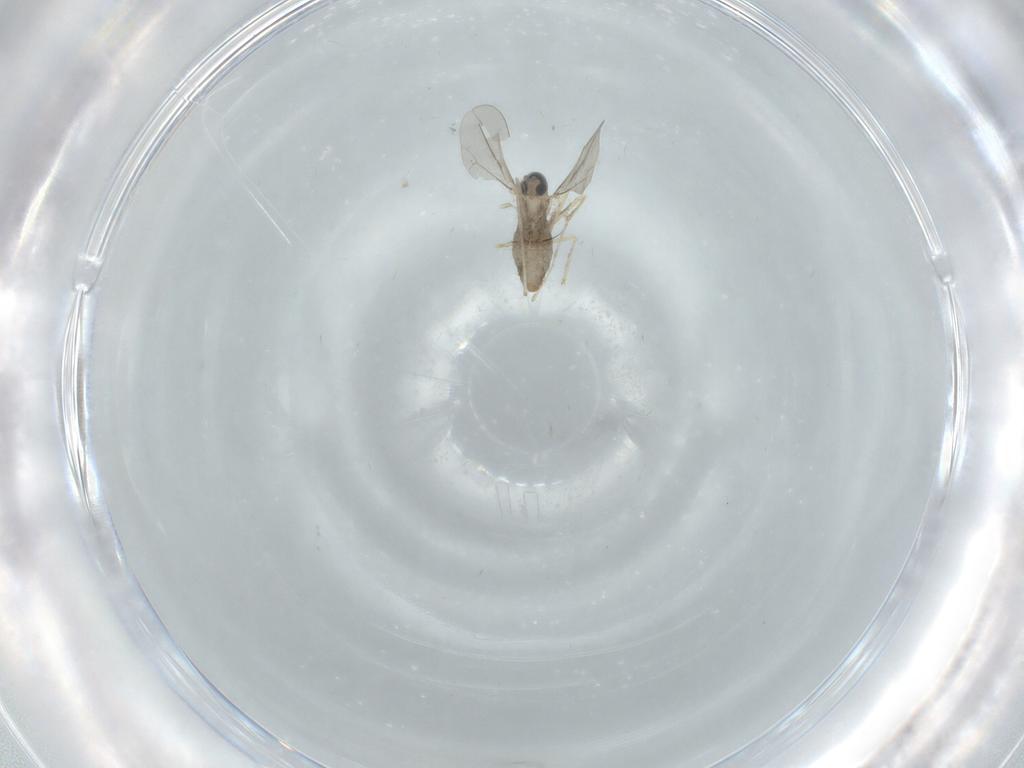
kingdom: Animalia
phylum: Arthropoda
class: Insecta
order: Diptera
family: Cecidomyiidae
